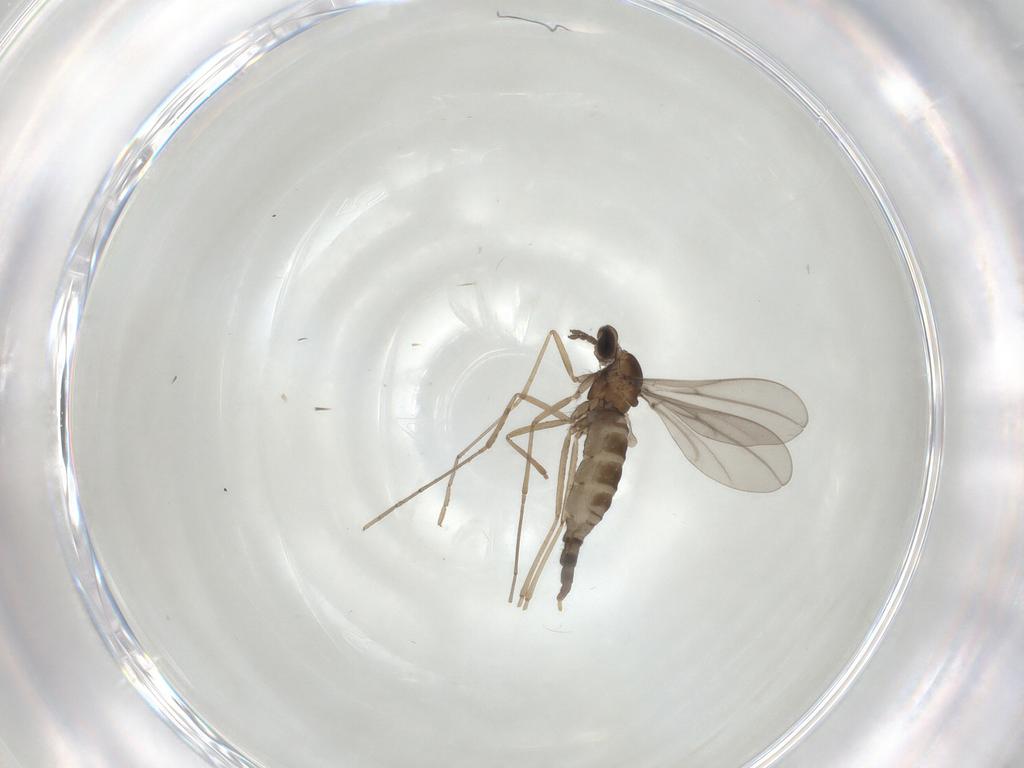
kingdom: Animalia
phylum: Arthropoda
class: Insecta
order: Diptera
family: Cecidomyiidae
